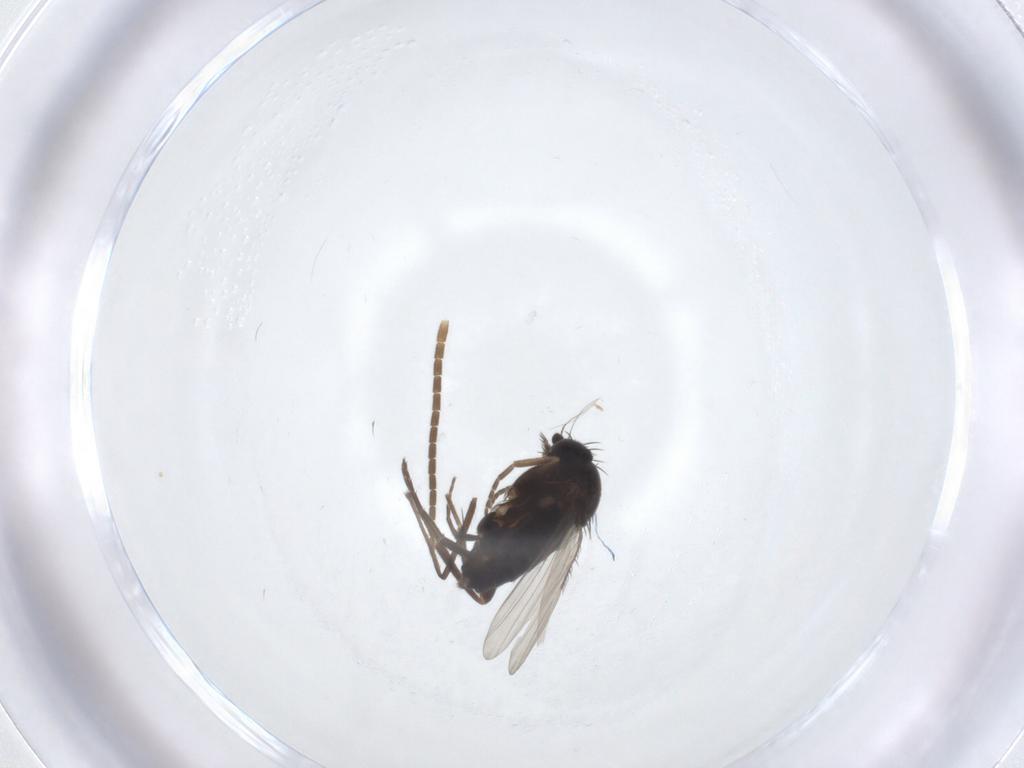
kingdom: Animalia
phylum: Arthropoda
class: Insecta
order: Diptera
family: Phoridae
